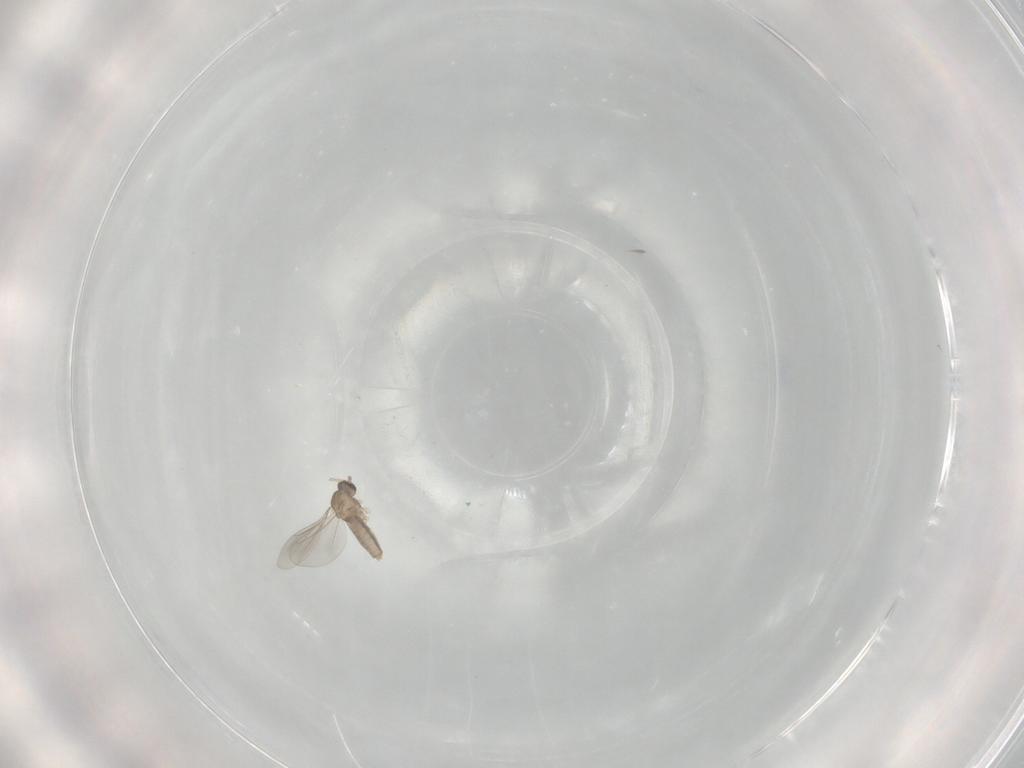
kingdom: Animalia
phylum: Arthropoda
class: Insecta
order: Diptera
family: Cecidomyiidae
